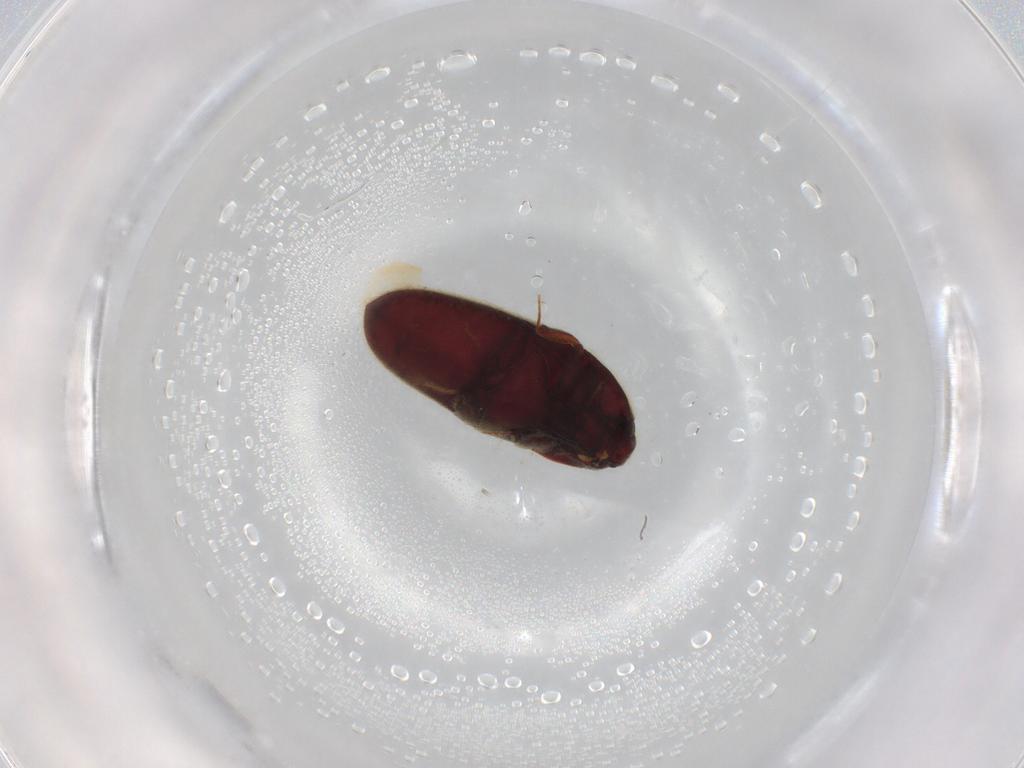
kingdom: Animalia
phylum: Arthropoda
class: Insecta
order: Coleoptera
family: Throscidae
